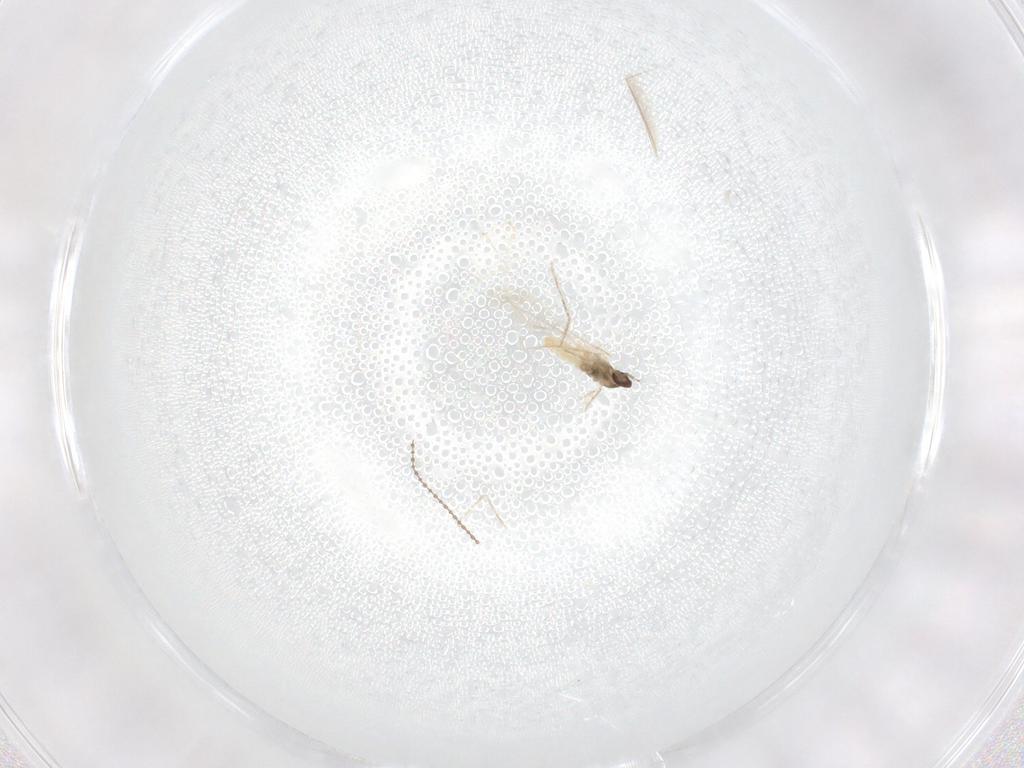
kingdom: Animalia
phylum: Arthropoda
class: Insecta
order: Diptera
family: Cecidomyiidae
